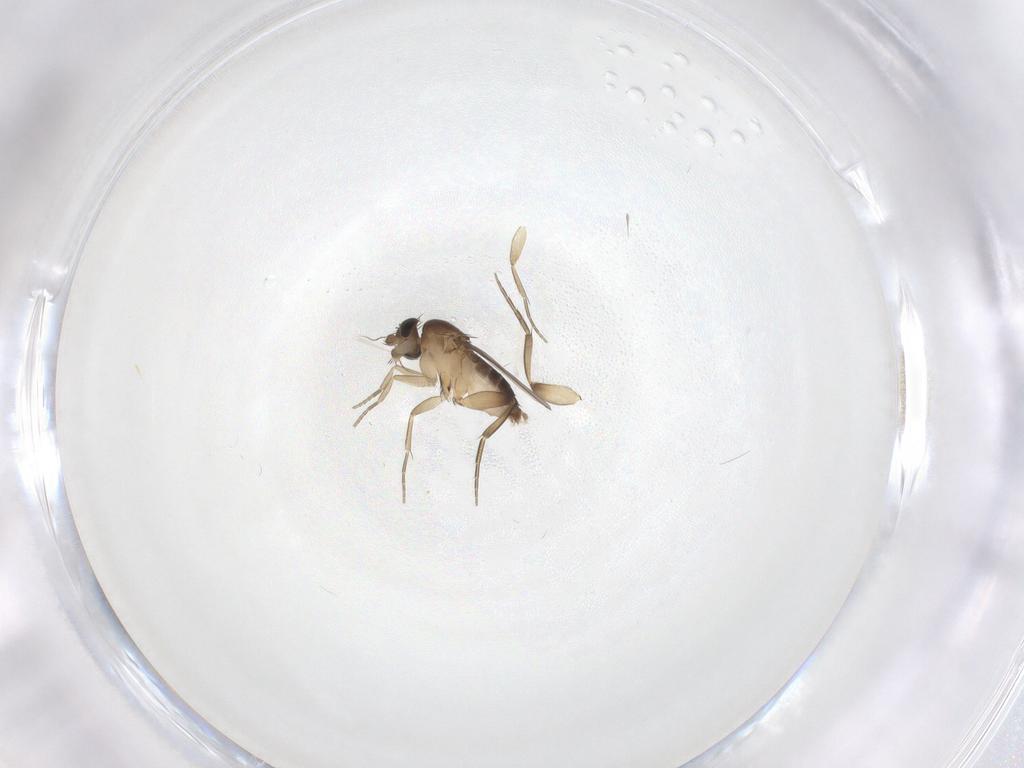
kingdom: Animalia
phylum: Arthropoda
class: Insecta
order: Diptera
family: Phoridae
